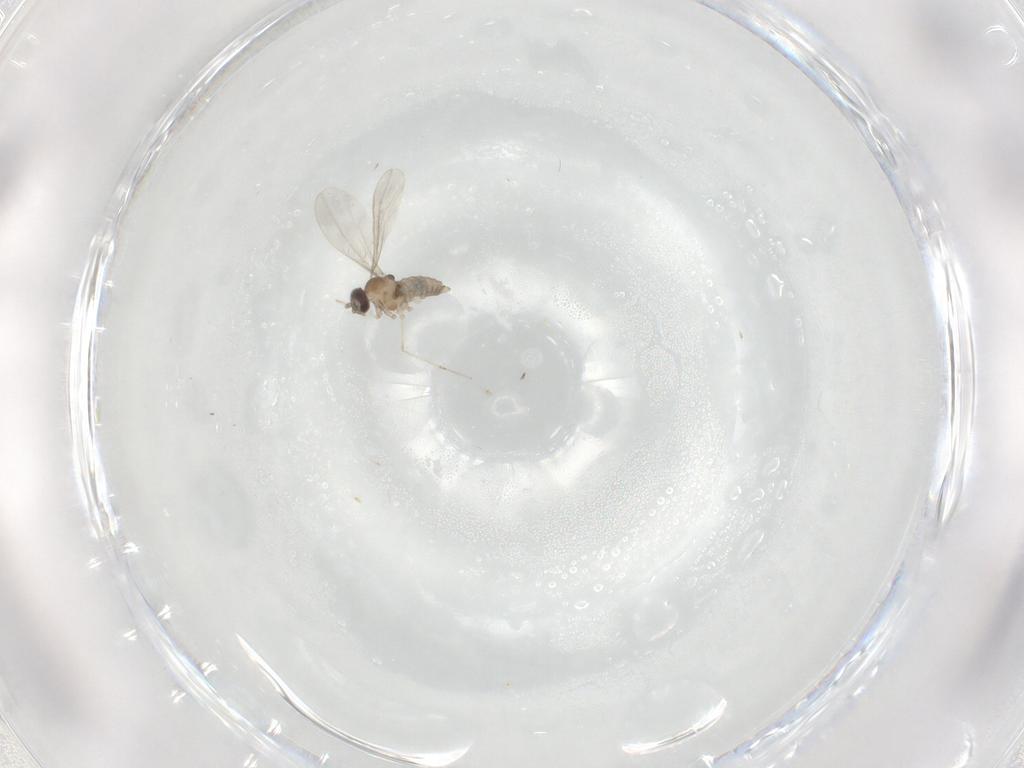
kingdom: Animalia
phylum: Arthropoda
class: Insecta
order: Diptera
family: Cecidomyiidae
